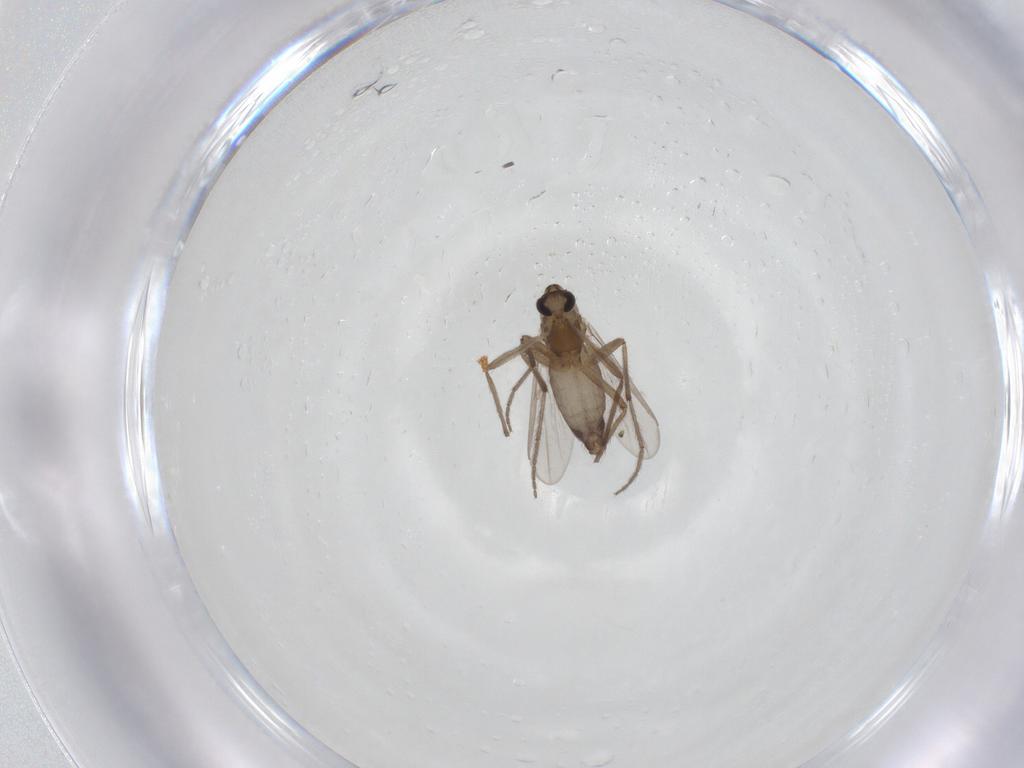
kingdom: Animalia
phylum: Arthropoda
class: Insecta
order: Diptera
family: Chironomidae
